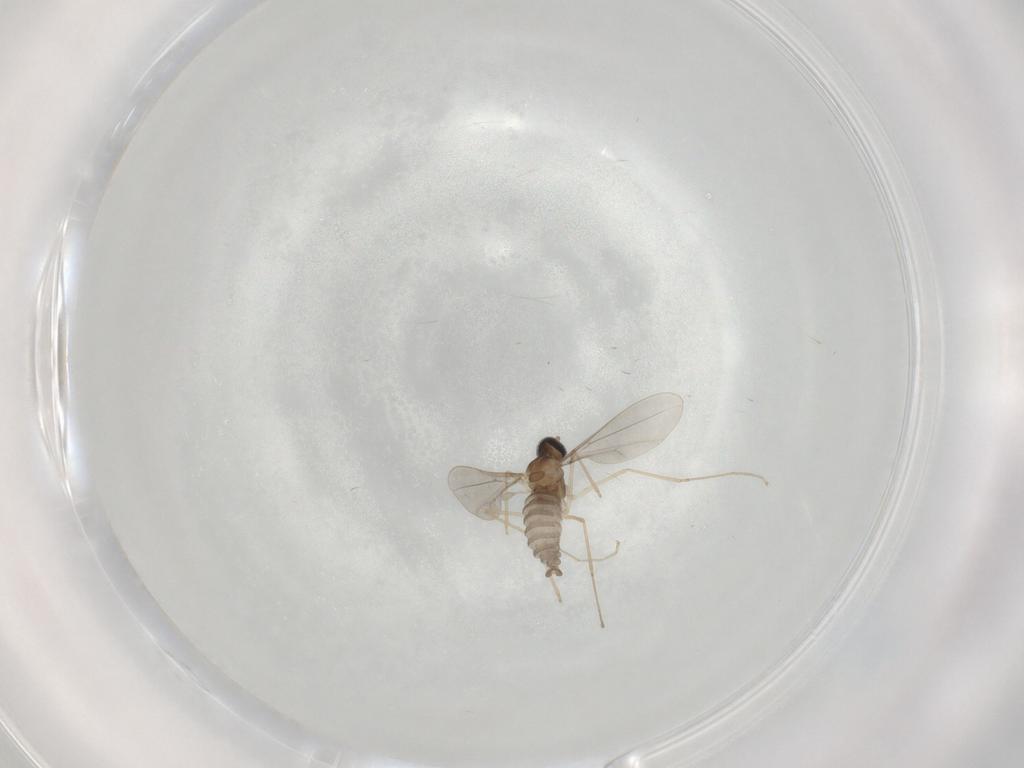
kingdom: Animalia
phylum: Arthropoda
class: Insecta
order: Diptera
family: Cecidomyiidae
